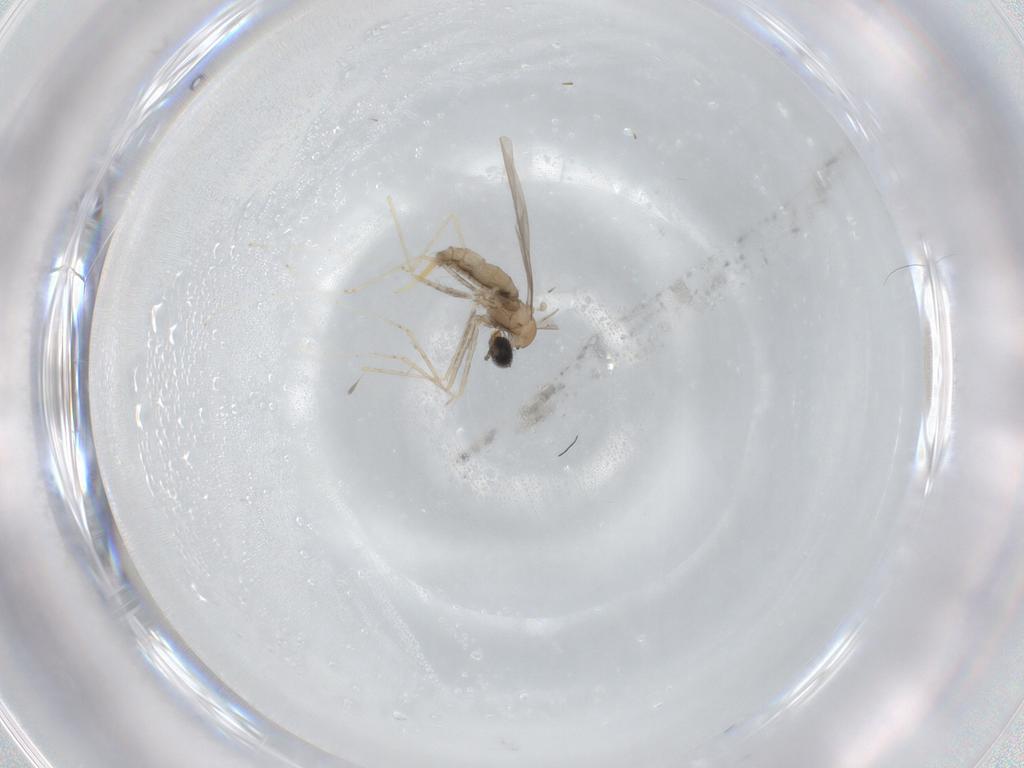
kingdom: Animalia
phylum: Arthropoda
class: Insecta
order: Diptera
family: Cecidomyiidae
